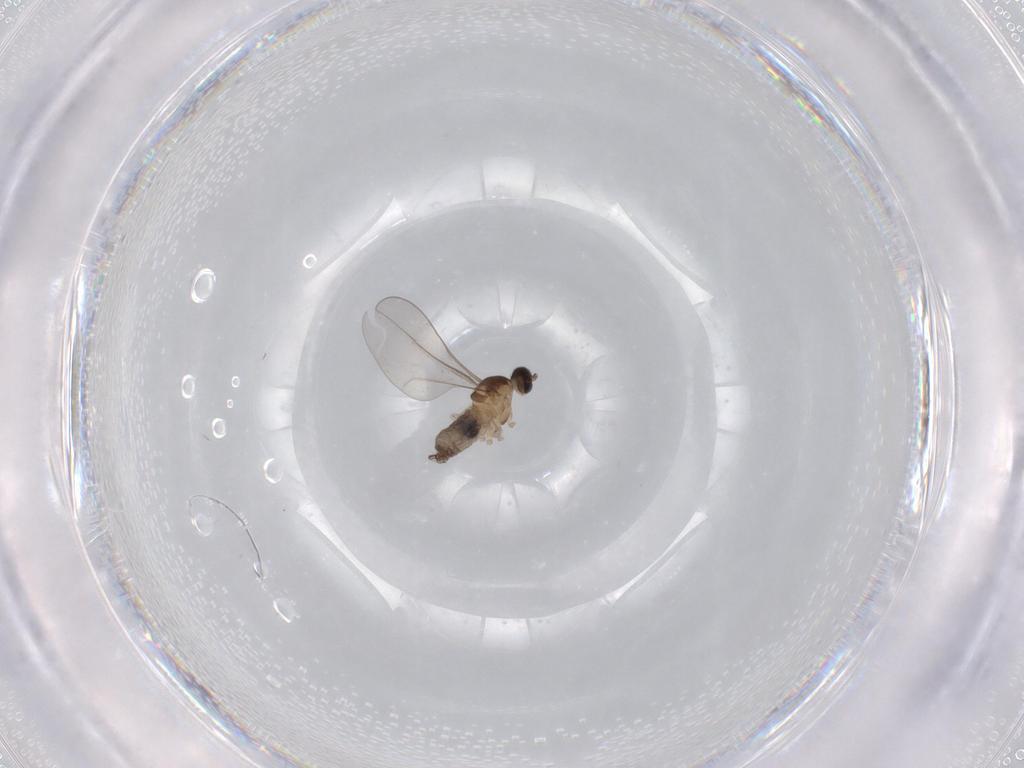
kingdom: Animalia
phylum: Arthropoda
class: Insecta
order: Diptera
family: Cecidomyiidae
